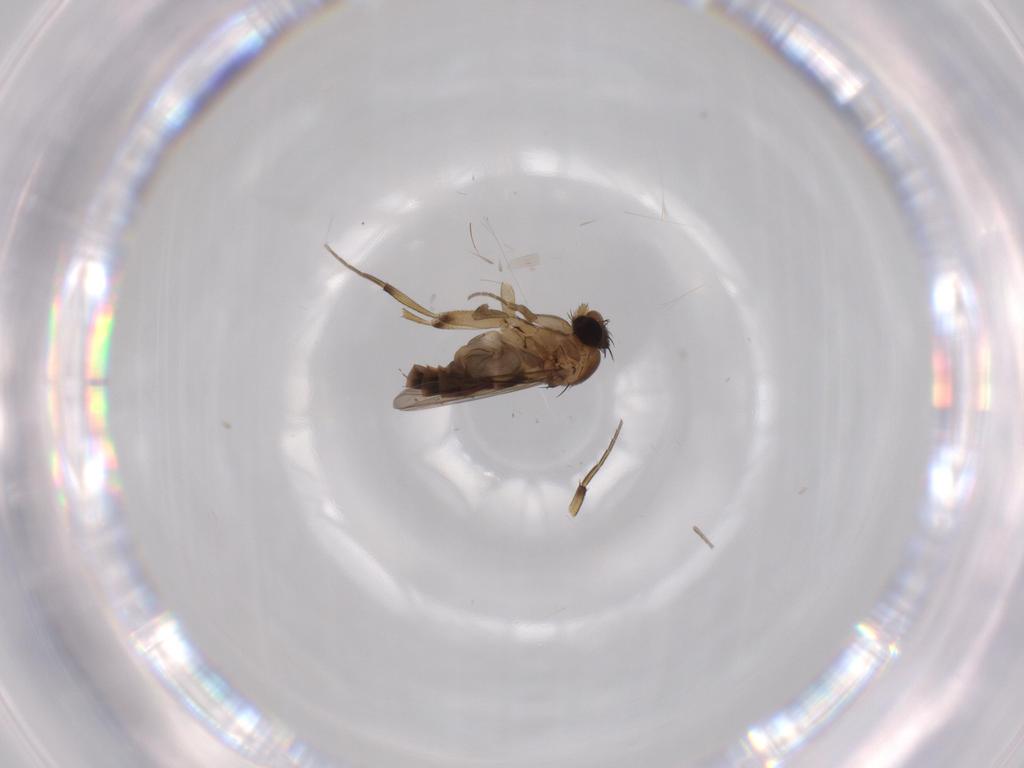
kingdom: Animalia
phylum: Arthropoda
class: Insecta
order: Diptera
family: Phoridae
